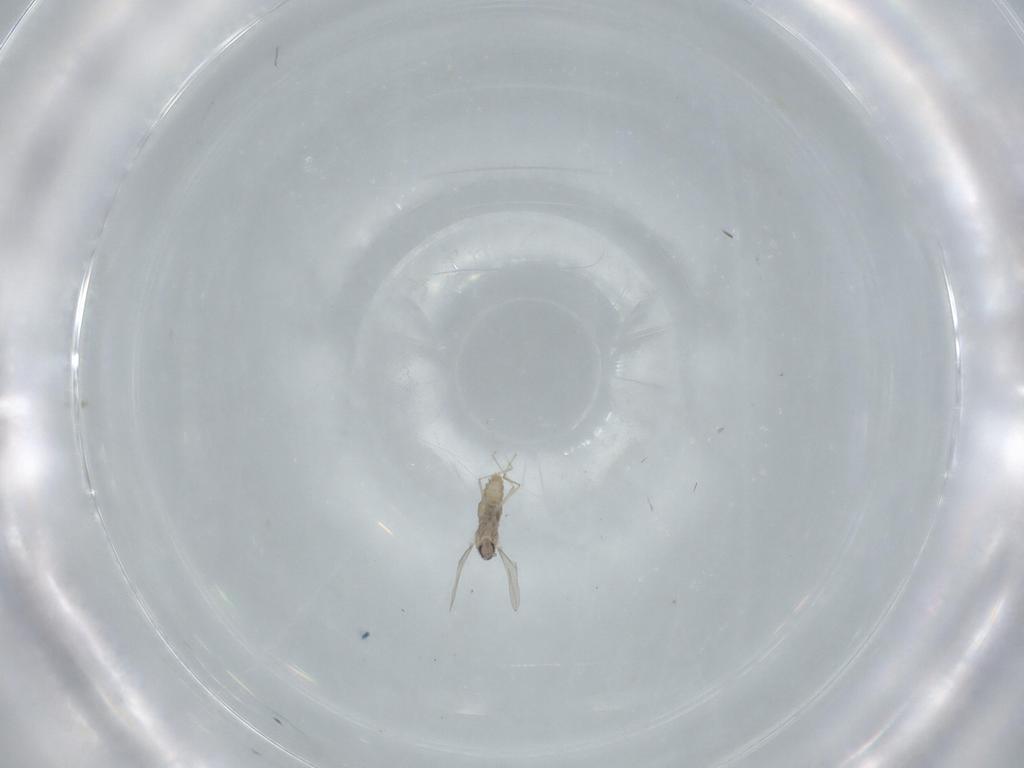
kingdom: Animalia
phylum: Arthropoda
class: Insecta
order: Diptera
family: Cecidomyiidae
